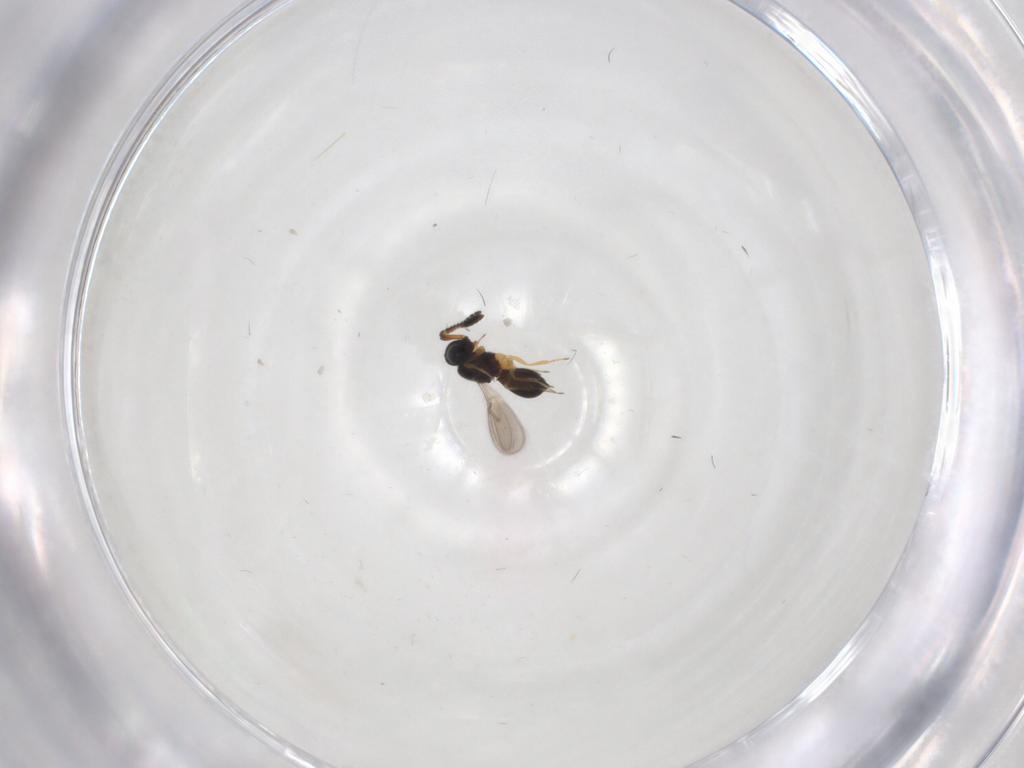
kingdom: Animalia
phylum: Arthropoda
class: Insecta
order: Hymenoptera
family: Scelionidae
